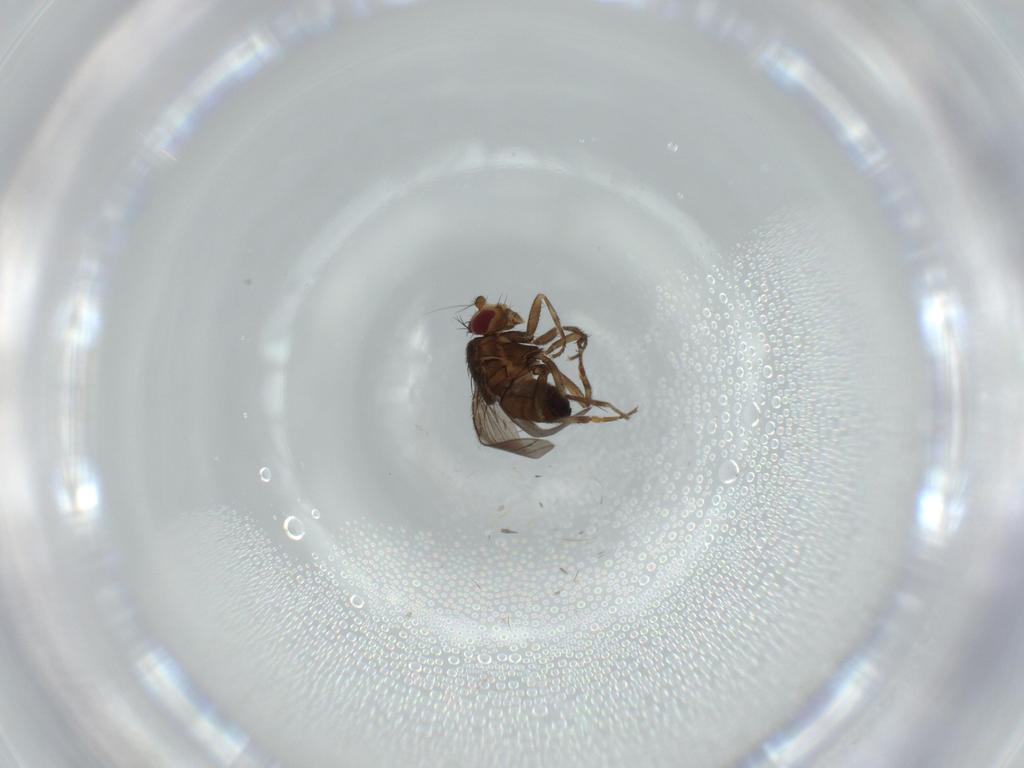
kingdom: Animalia
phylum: Arthropoda
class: Insecta
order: Diptera
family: Sphaeroceridae
